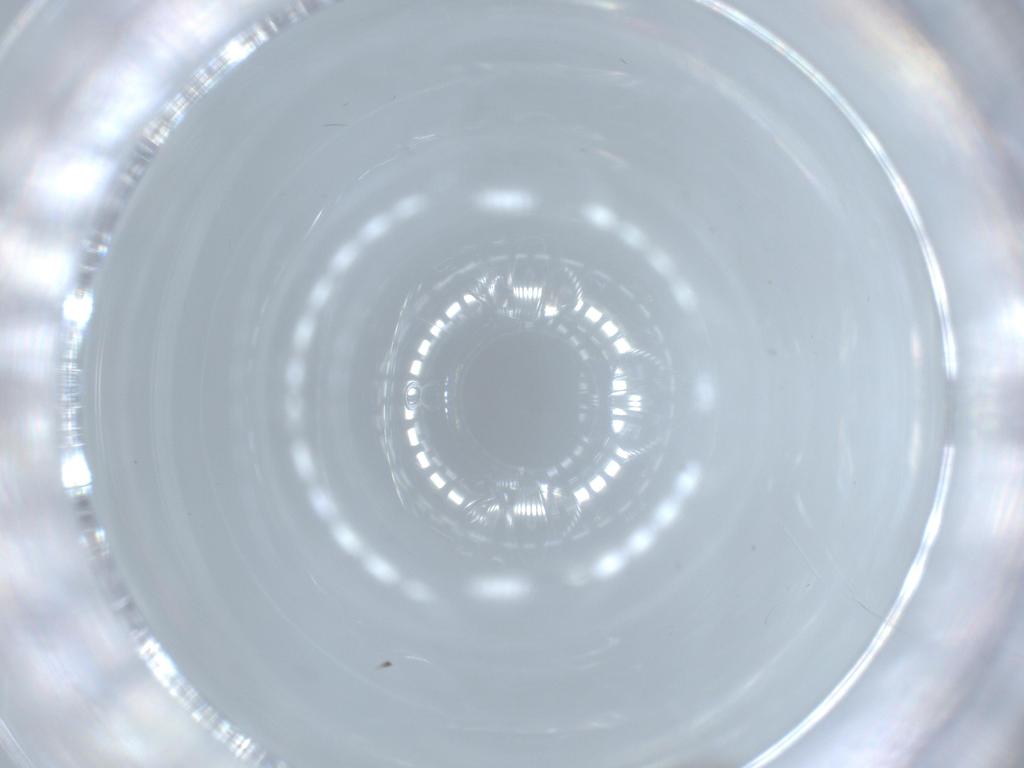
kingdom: Animalia
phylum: Arthropoda
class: Insecta
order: Diptera
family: Cecidomyiidae
